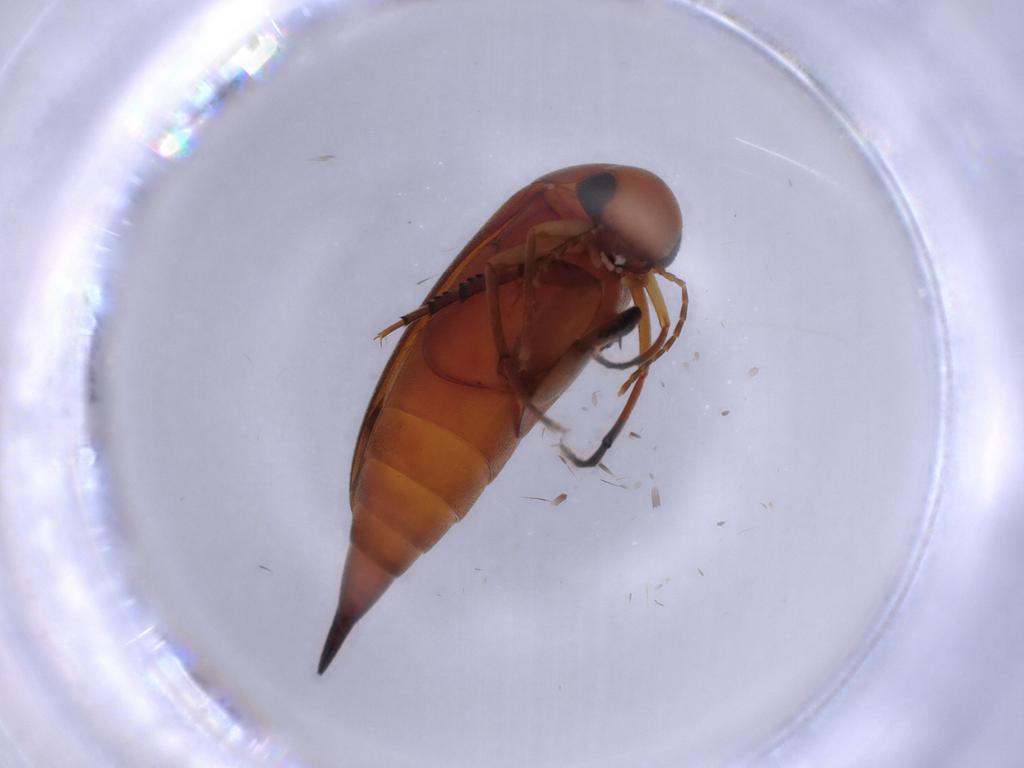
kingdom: Animalia
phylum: Arthropoda
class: Insecta
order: Coleoptera
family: Mordellidae
